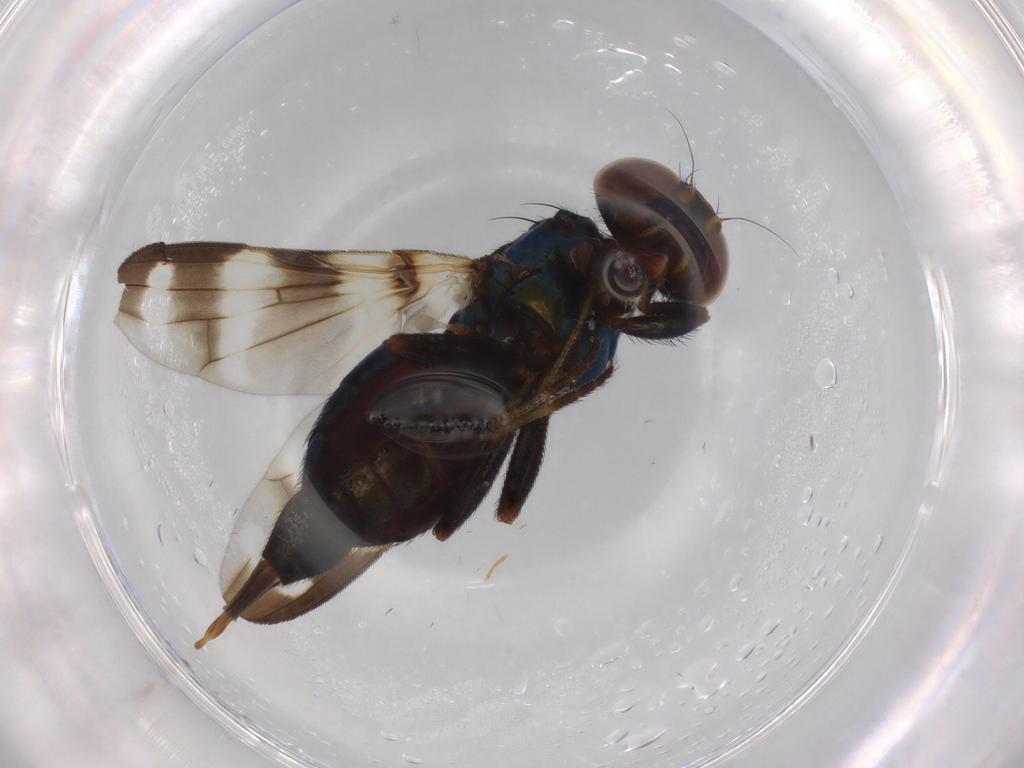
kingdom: Animalia
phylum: Arthropoda
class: Insecta
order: Diptera
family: Ulidiidae
